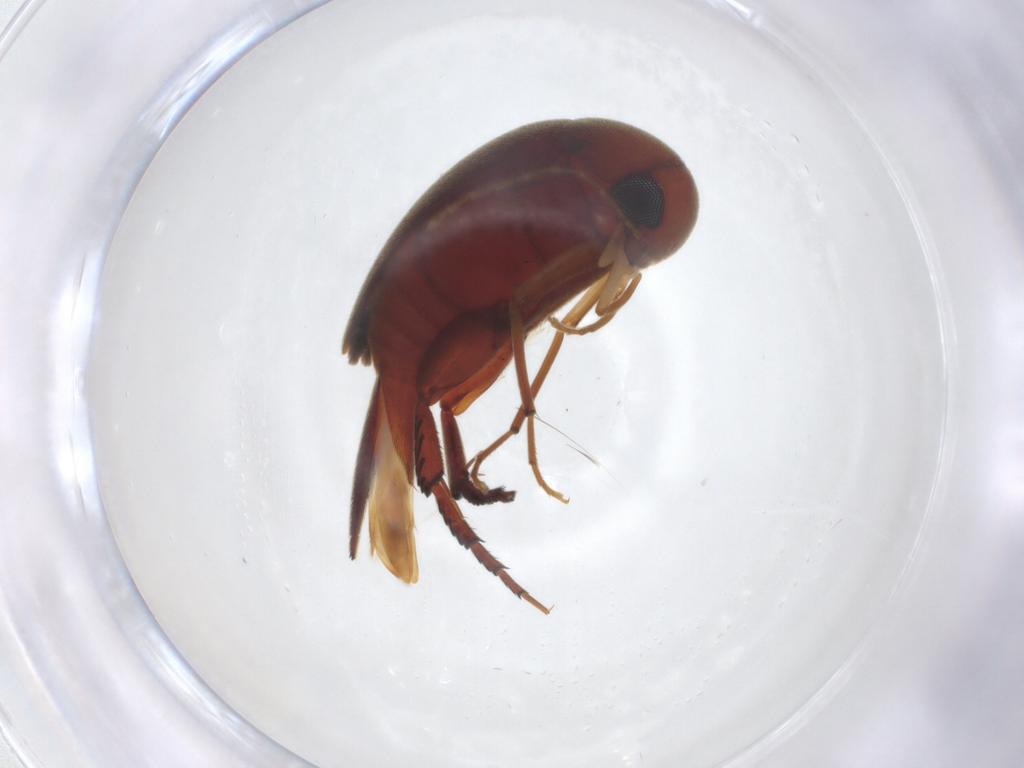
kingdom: Animalia
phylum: Arthropoda
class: Insecta
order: Coleoptera
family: Mordellidae
